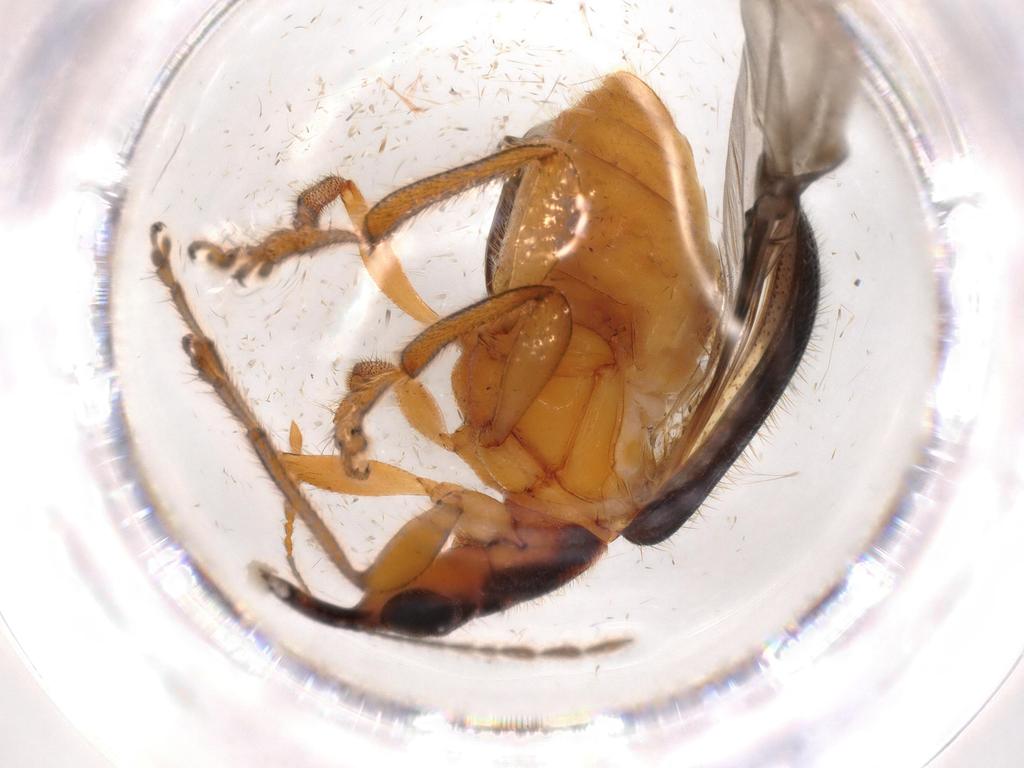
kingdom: Animalia
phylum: Arthropoda
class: Insecta
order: Coleoptera
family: Attelabidae
